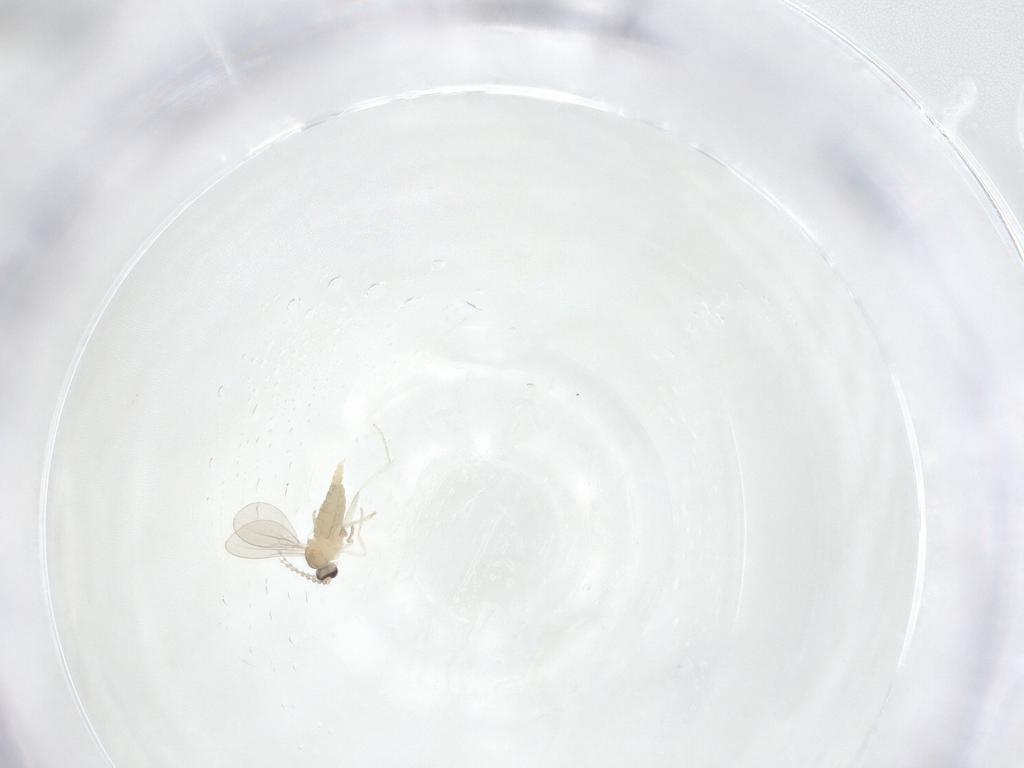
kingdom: Animalia
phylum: Arthropoda
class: Insecta
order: Diptera
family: Cecidomyiidae
